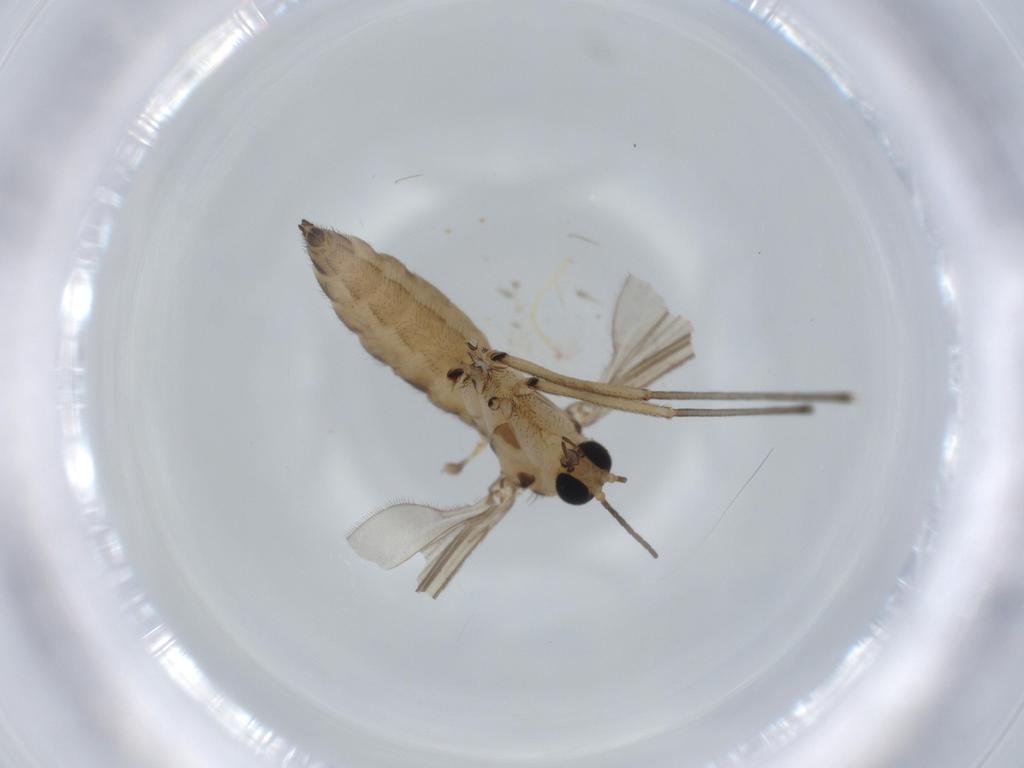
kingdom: Animalia
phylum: Arthropoda
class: Insecta
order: Diptera
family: Sciaridae
